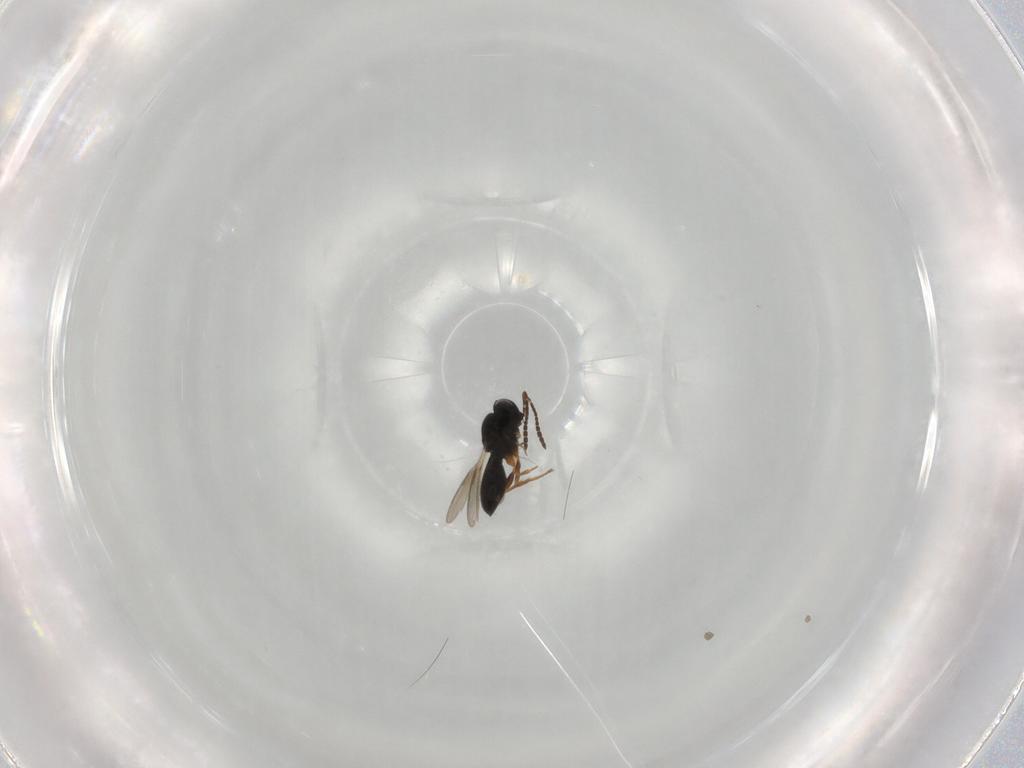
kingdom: Animalia
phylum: Arthropoda
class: Insecta
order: Hymenoptera
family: Scelionidae
